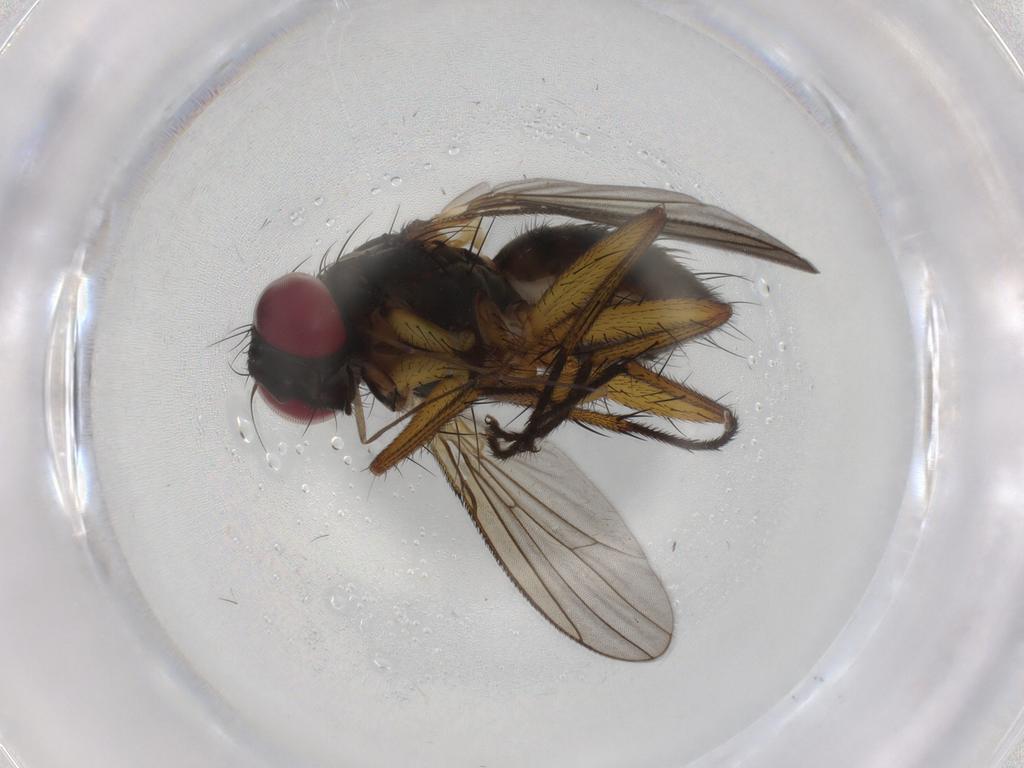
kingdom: Animalia
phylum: Arthropoda
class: Insecta
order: Diptera
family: Muscidae
